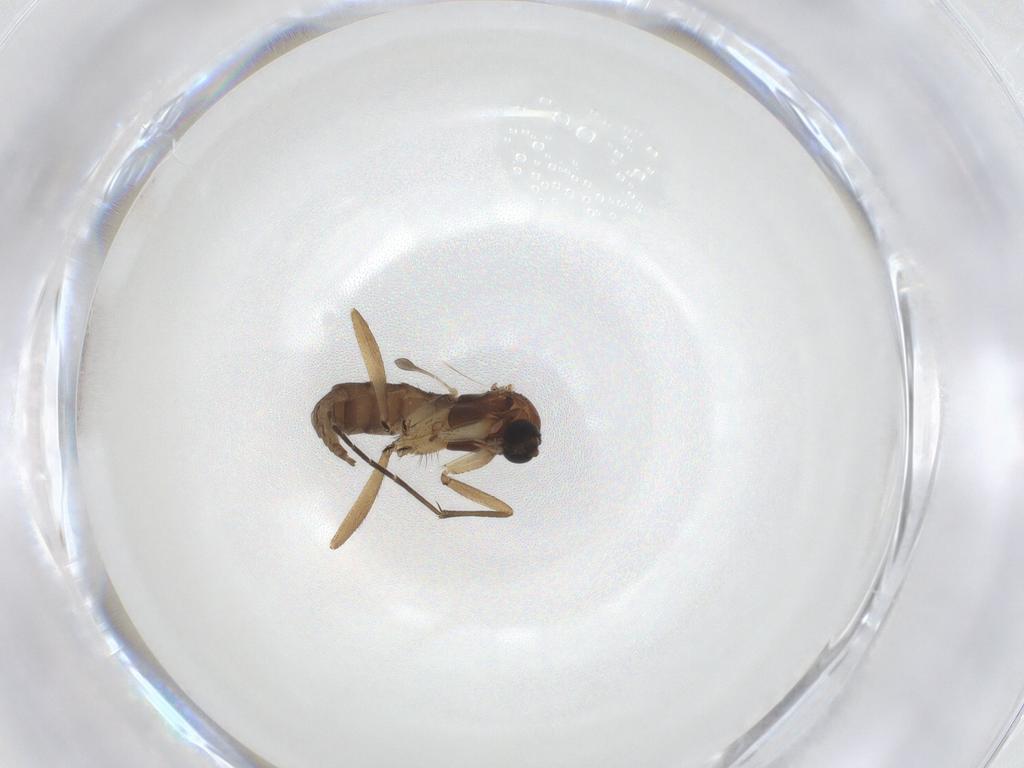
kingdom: Animalia
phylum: Arthropoda
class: Insecta
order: Diptera
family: Sciaridae
